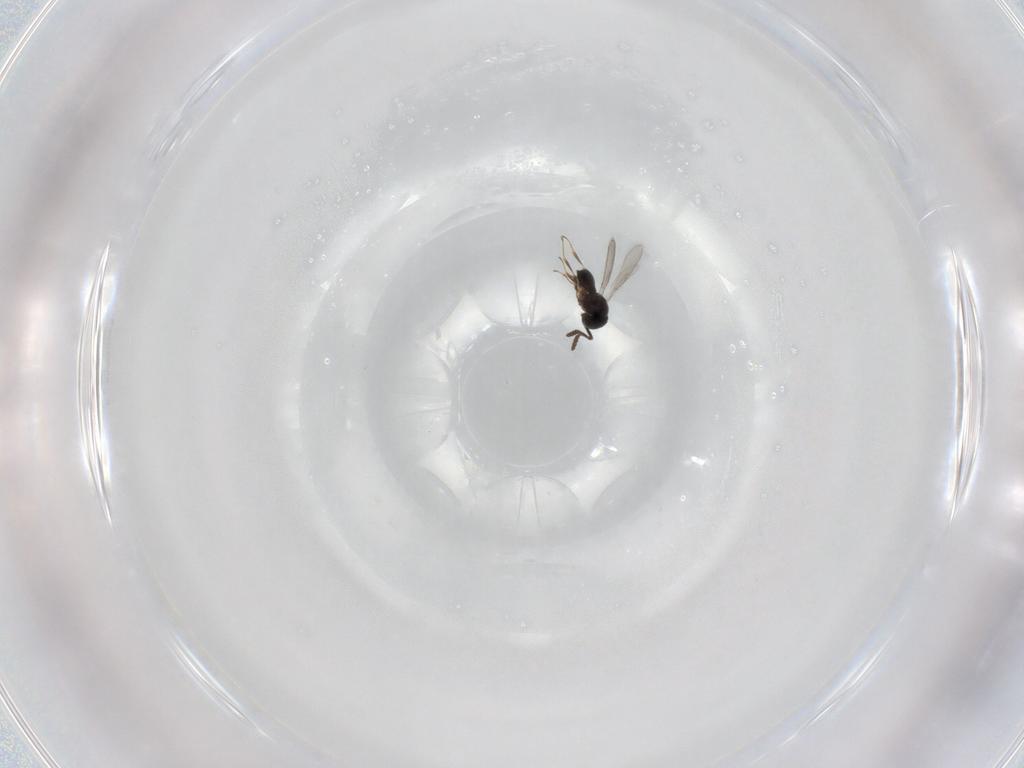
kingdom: Animalia
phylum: Arthropoda
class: Insecta
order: Hymenoptera
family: Scelionidae
